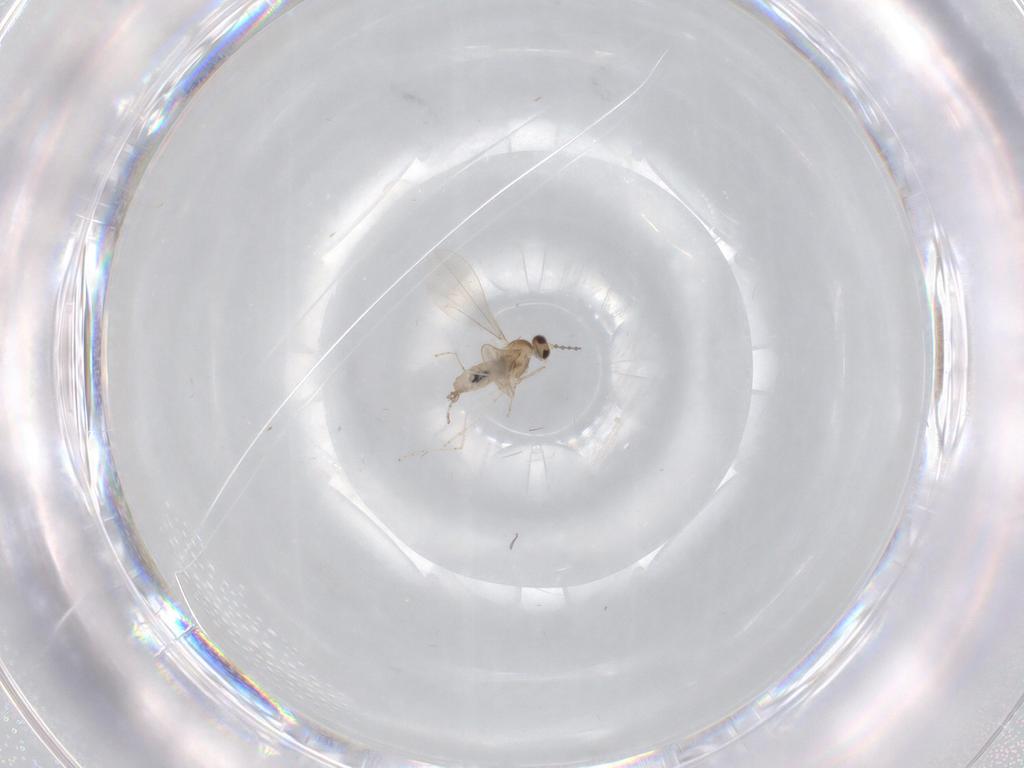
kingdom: Animalia
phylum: Arthropoda
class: Insecta
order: Diptera
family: Cecidomyiidae
